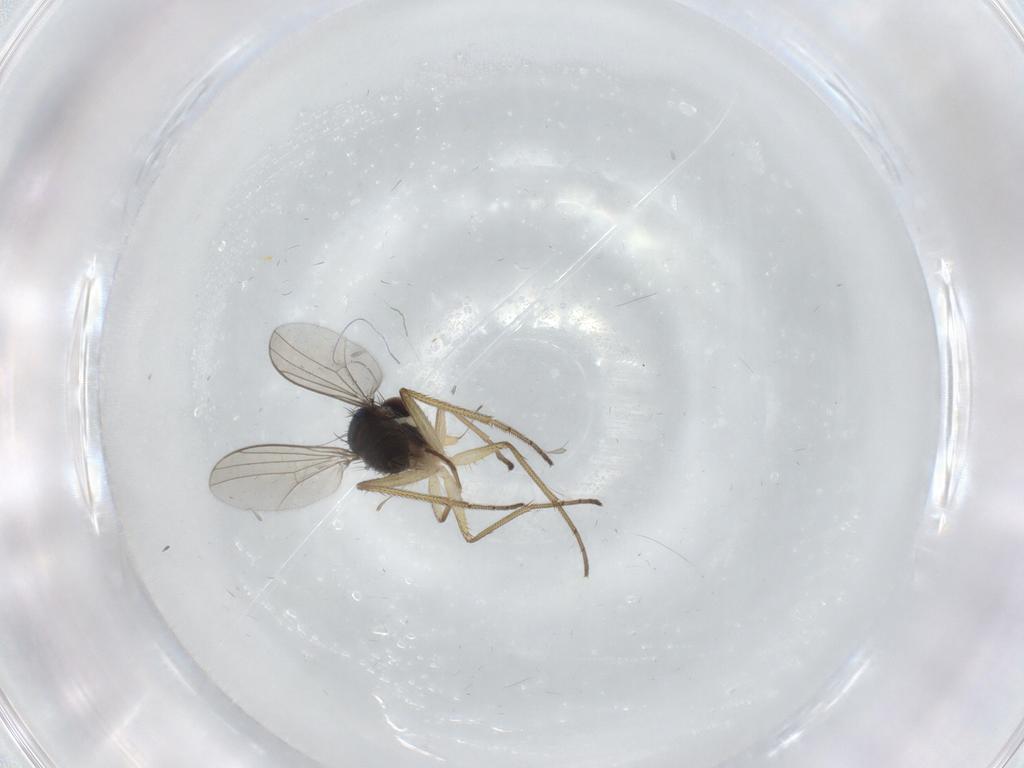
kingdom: Animalia
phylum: Arthropoda
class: Insecta
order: Diptera
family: Dolichopodidae
